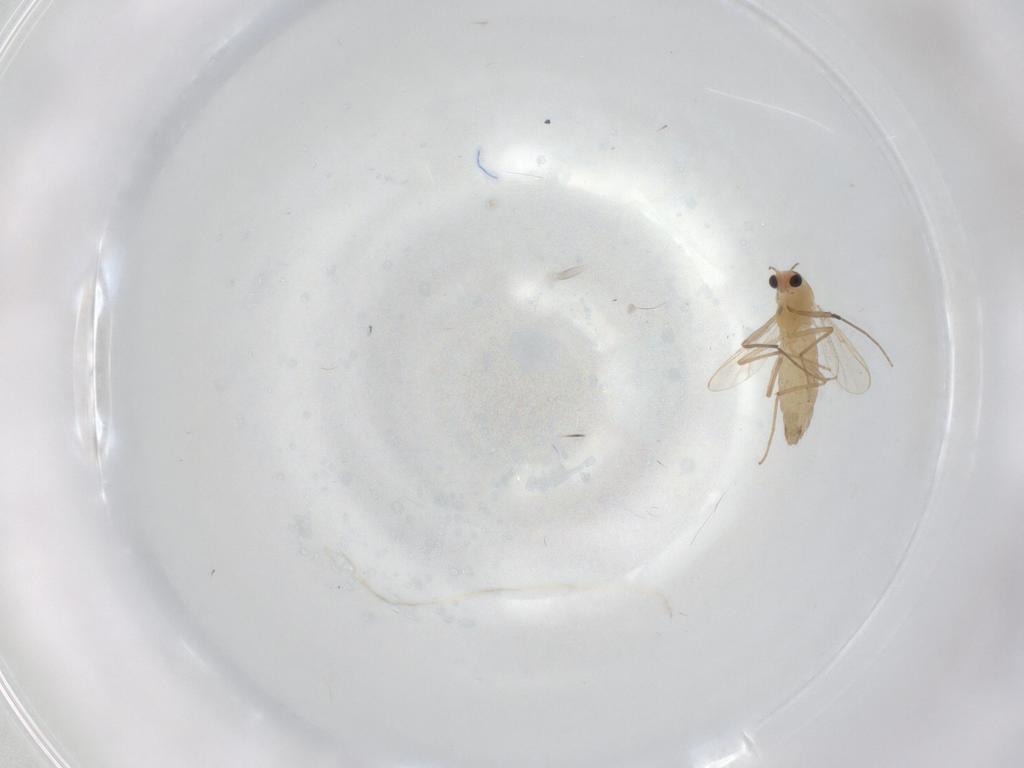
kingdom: Animalia
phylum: Arthropoda
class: Insecta
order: Diptera
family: Chironomidae
